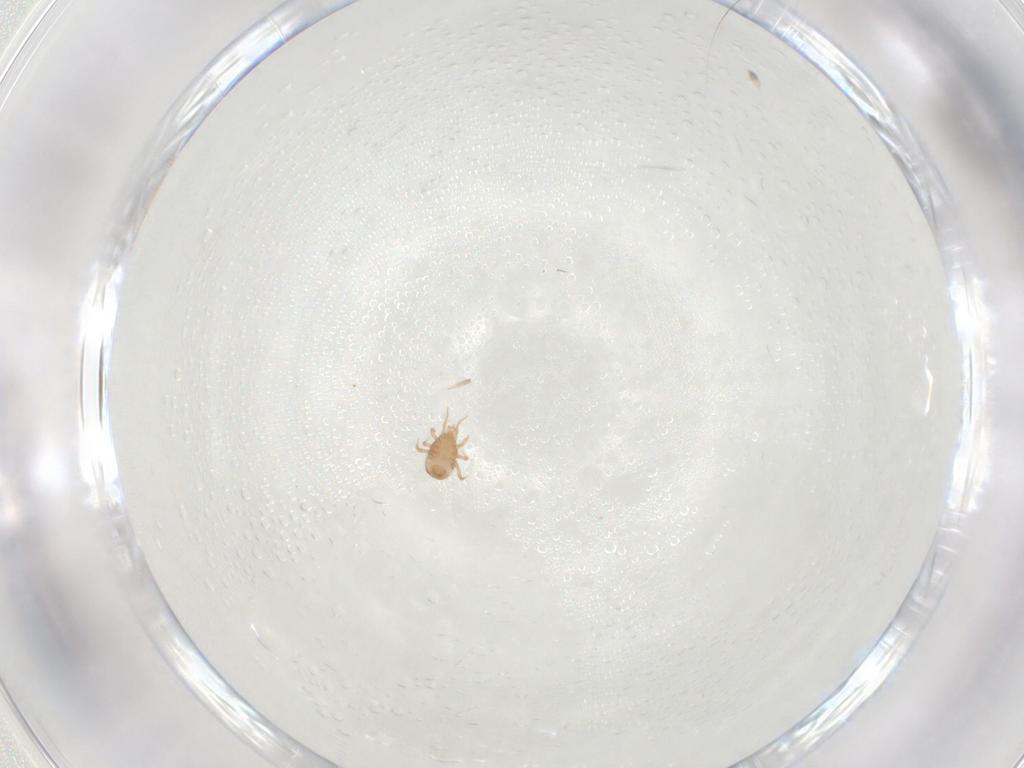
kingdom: Animalia
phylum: Arthropoda
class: Arachnida
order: Mesostigmata
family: Blattisociidae
